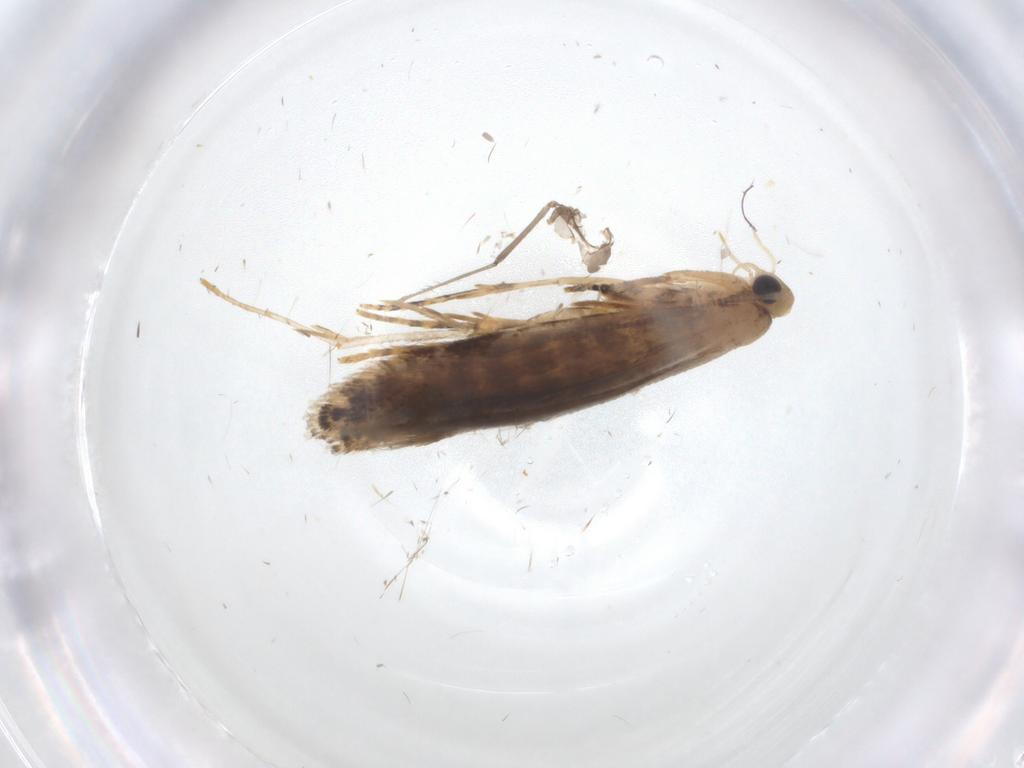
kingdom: Animalia
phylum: Arthropoda
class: Insecta
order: Lepidoptera
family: Tineidae
